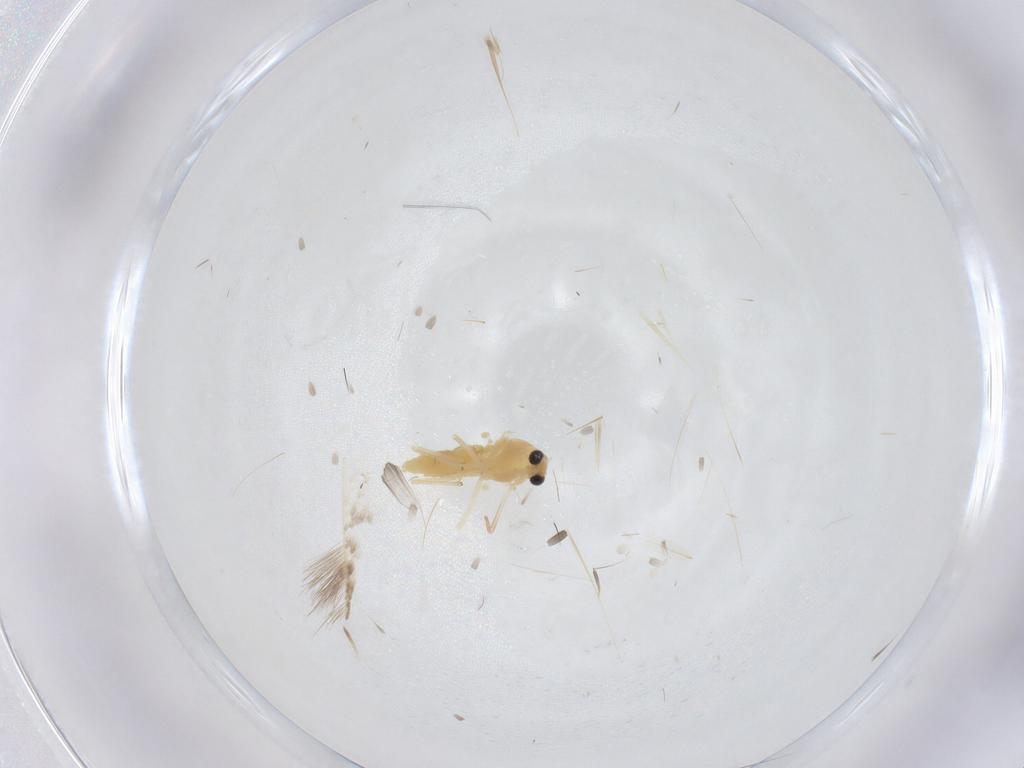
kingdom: Animalia
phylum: Arthropoda
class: Insecta
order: Diptera
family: Chironomidae
